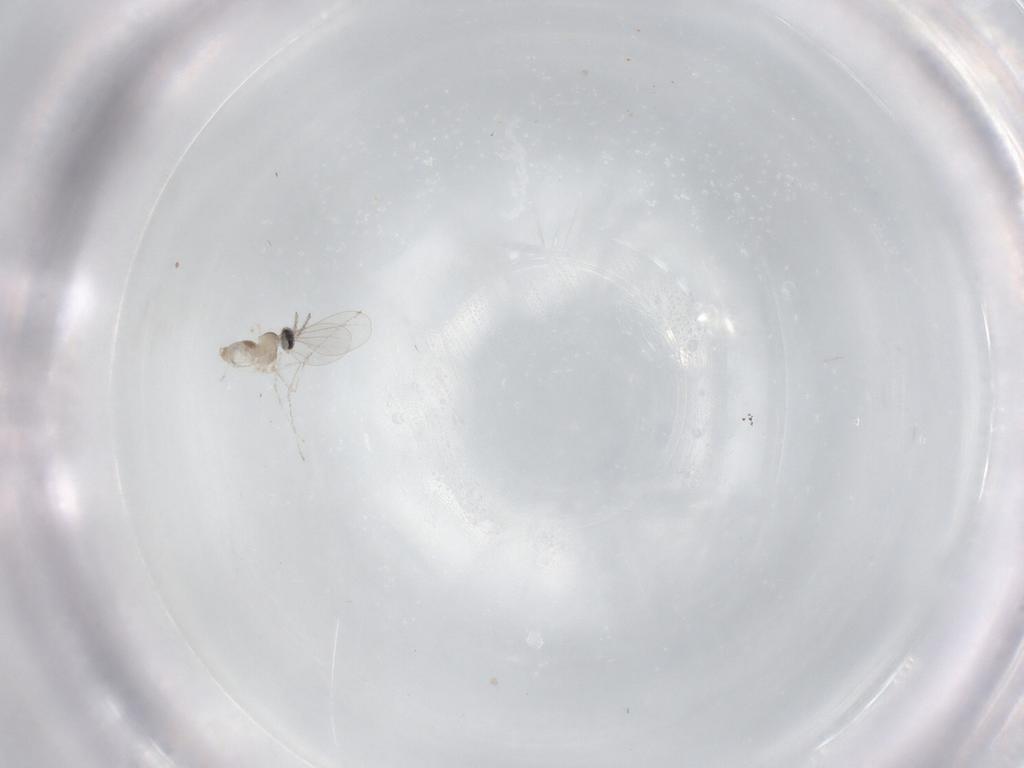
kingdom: Animalia
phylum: Arthropoda
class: Insecta
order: Diptera
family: Cecidomyiidae
